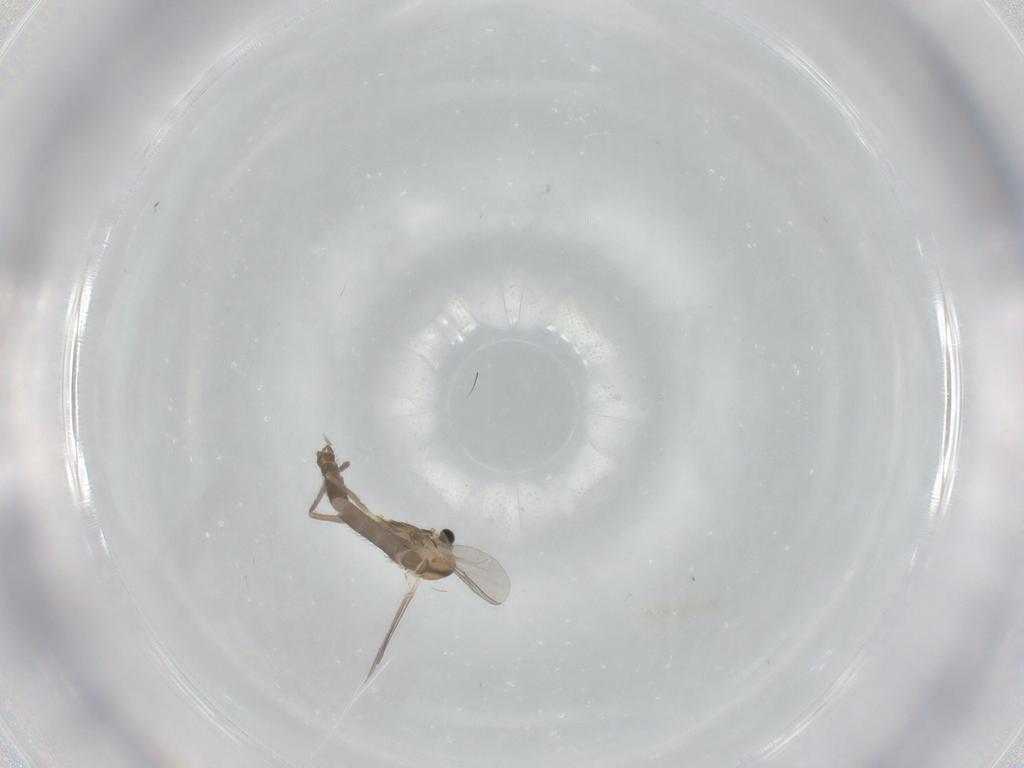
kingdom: Animalia
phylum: Arthropoda
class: Insecta
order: Diptera
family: Chironomidae
